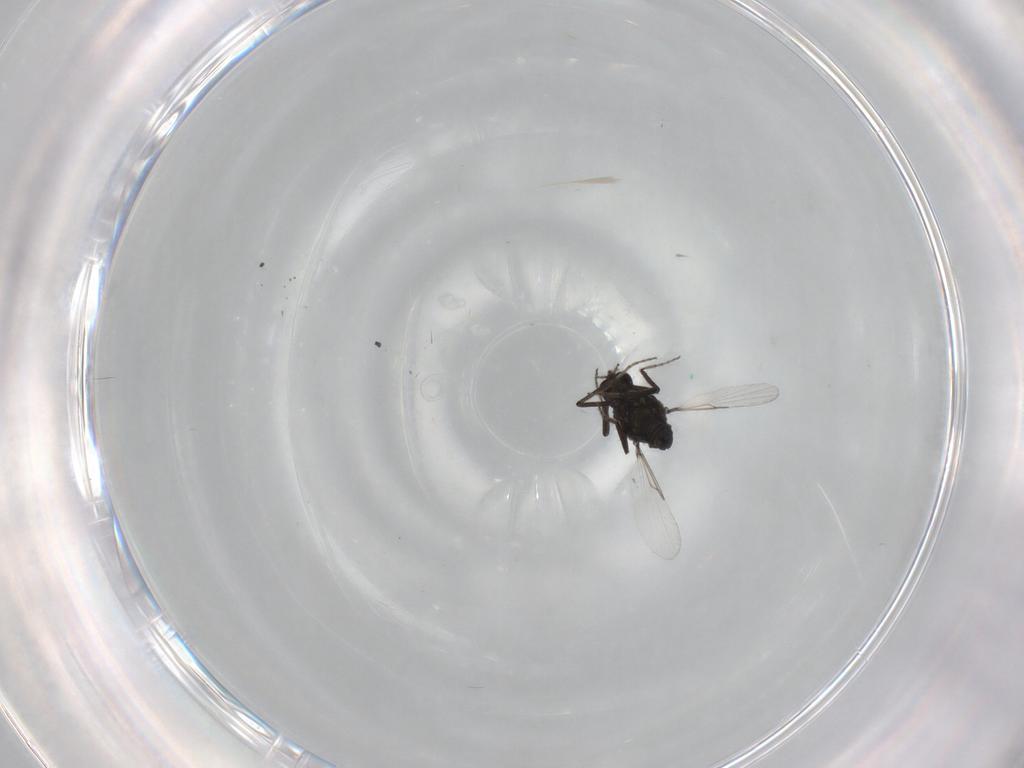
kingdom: Animalia
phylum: Arthropoda
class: Insecta
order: Diptera
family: Ceratopogonidae
